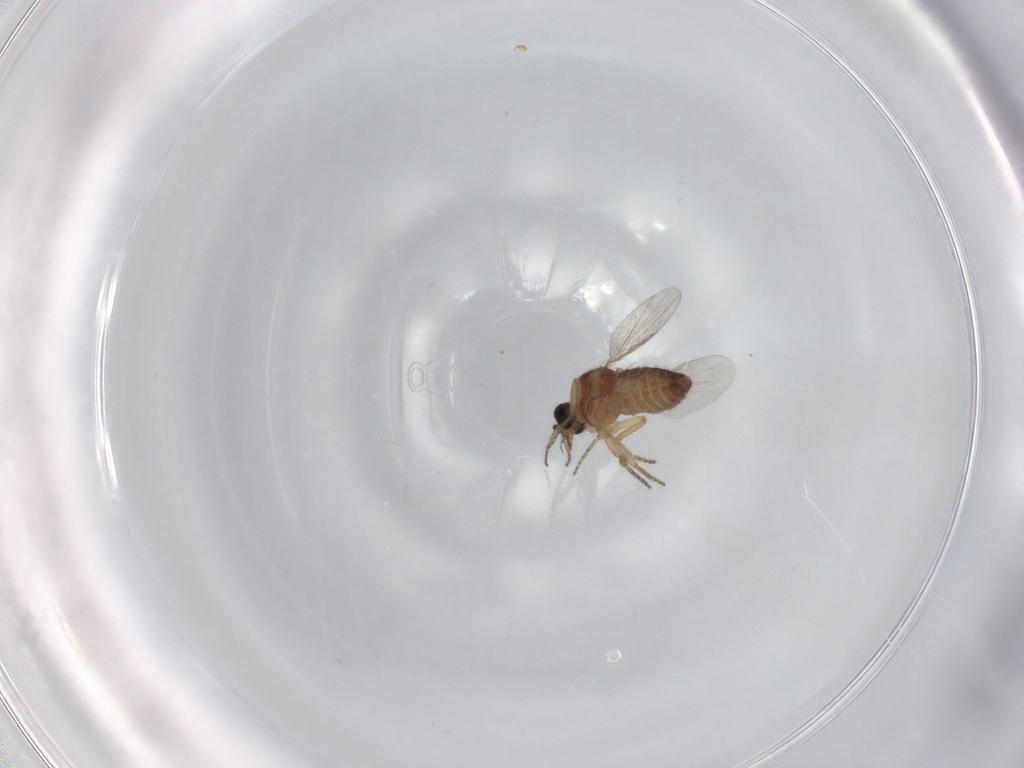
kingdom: Animalia
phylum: Arthropoda
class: Insecta
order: Diptera
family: Ceratopogonidae
